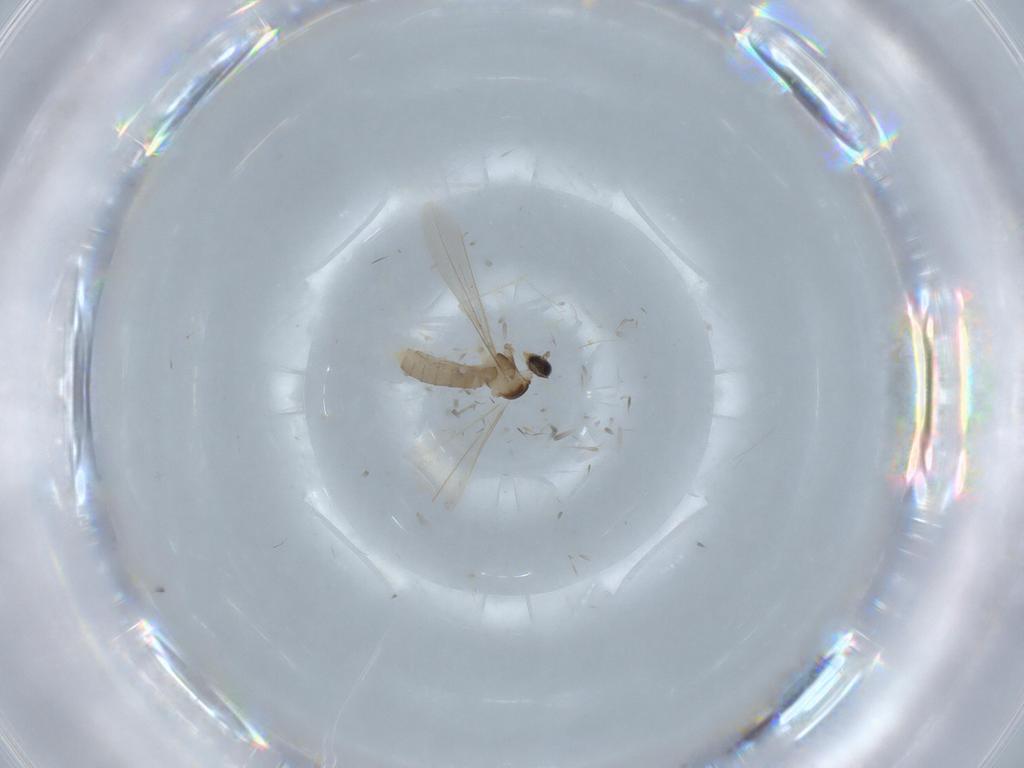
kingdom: Animalia
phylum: Arthropoda
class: Insecta
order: Diptera
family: Cecidomyiidae
